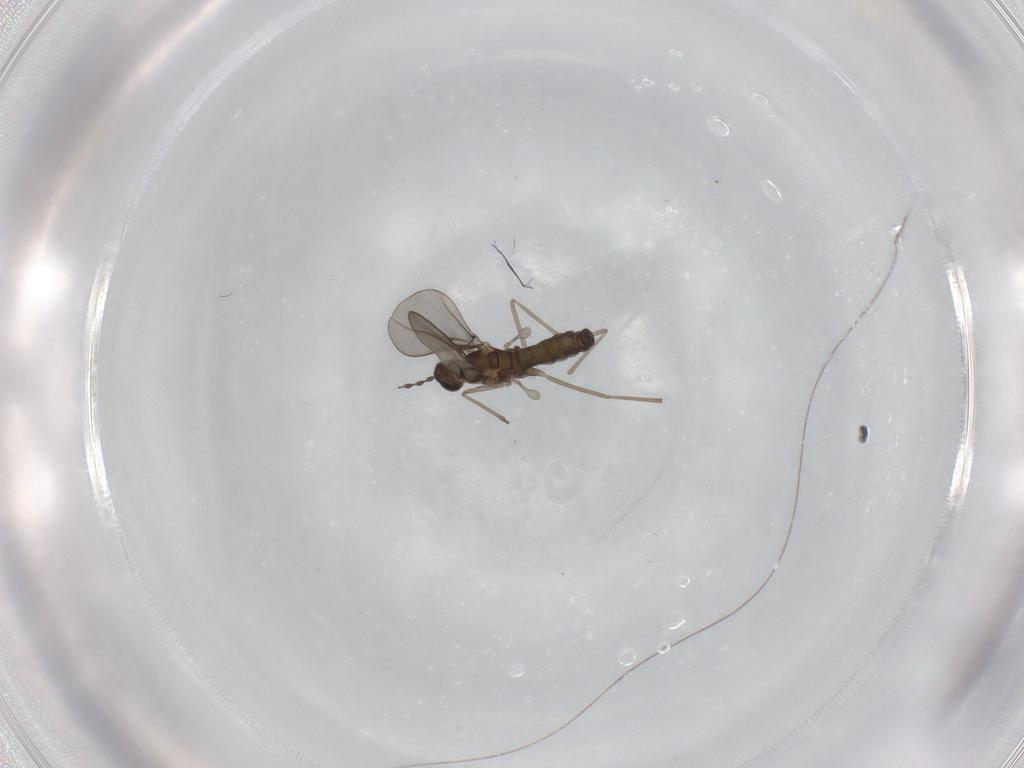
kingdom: Animalia
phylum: Arthropoda
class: Insecta
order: Diptera
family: Cecidomyiidae
